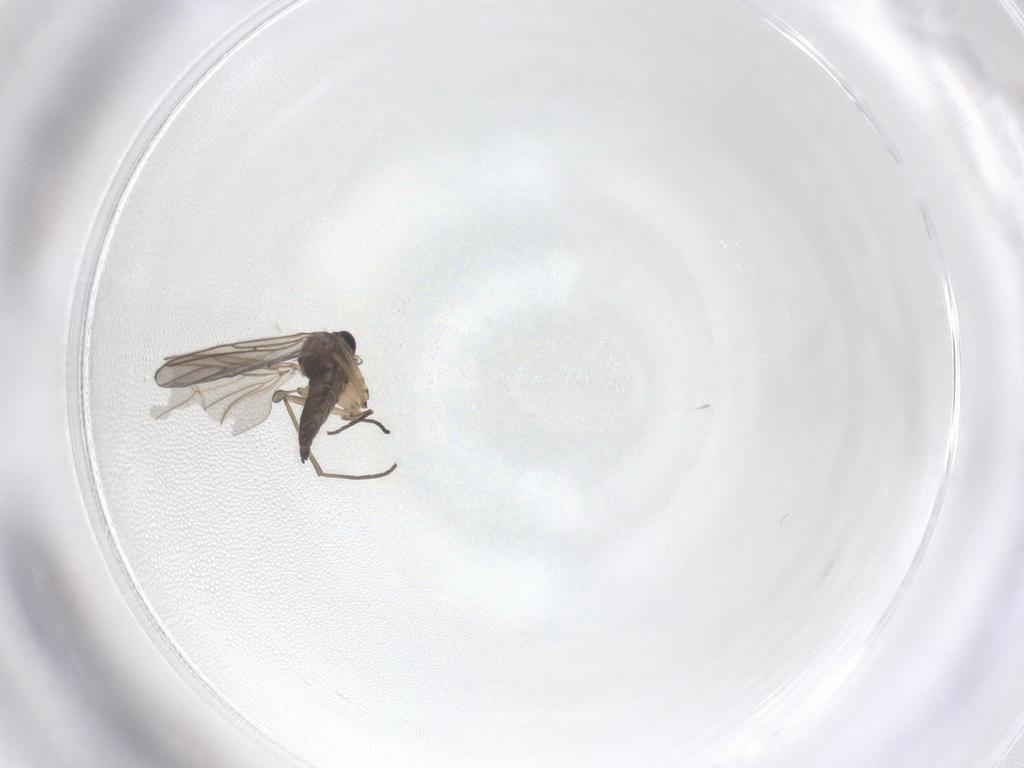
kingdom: Animalia
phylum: Arthropoda
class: Insecta
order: Diptera
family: Sciaridae
